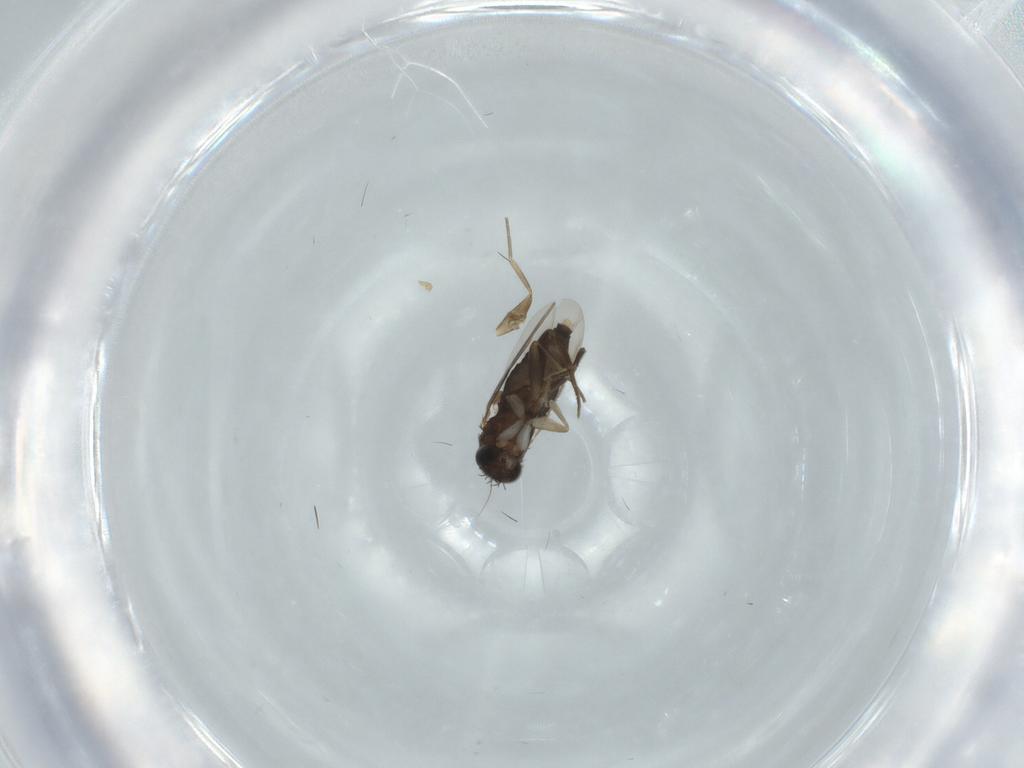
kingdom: Animalia
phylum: Arthropoda
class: Insecta
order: Diptera
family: Phoridae
